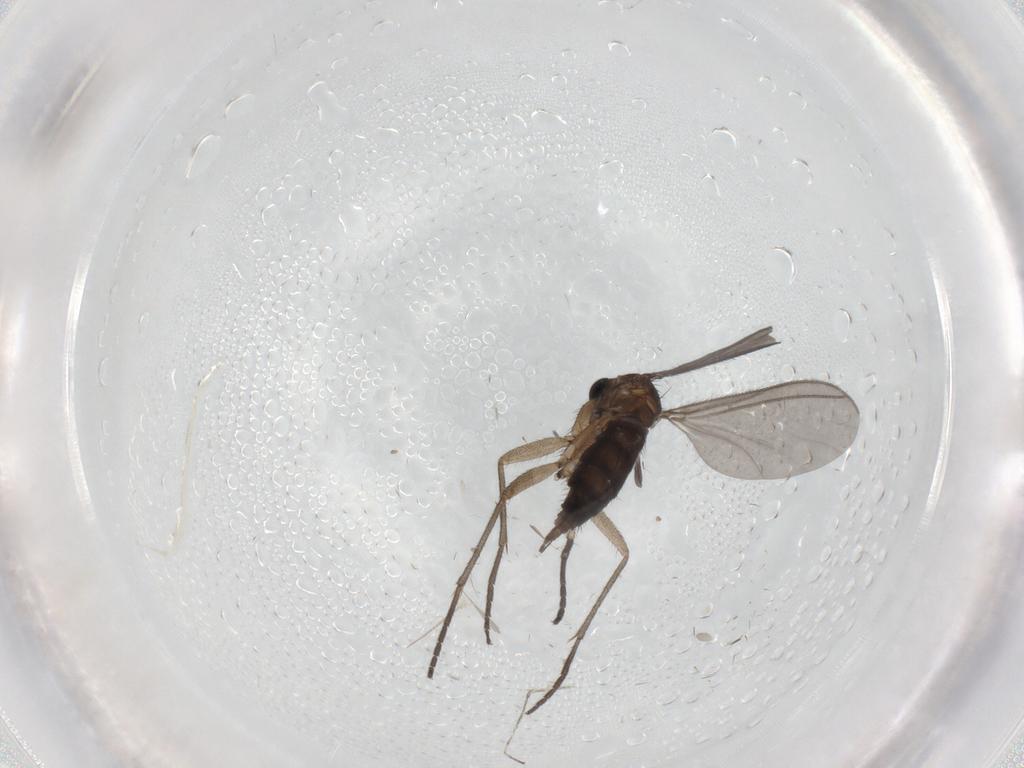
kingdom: Animalia
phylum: Arthropoda
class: Insecta
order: Diptera
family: Sciaridae
